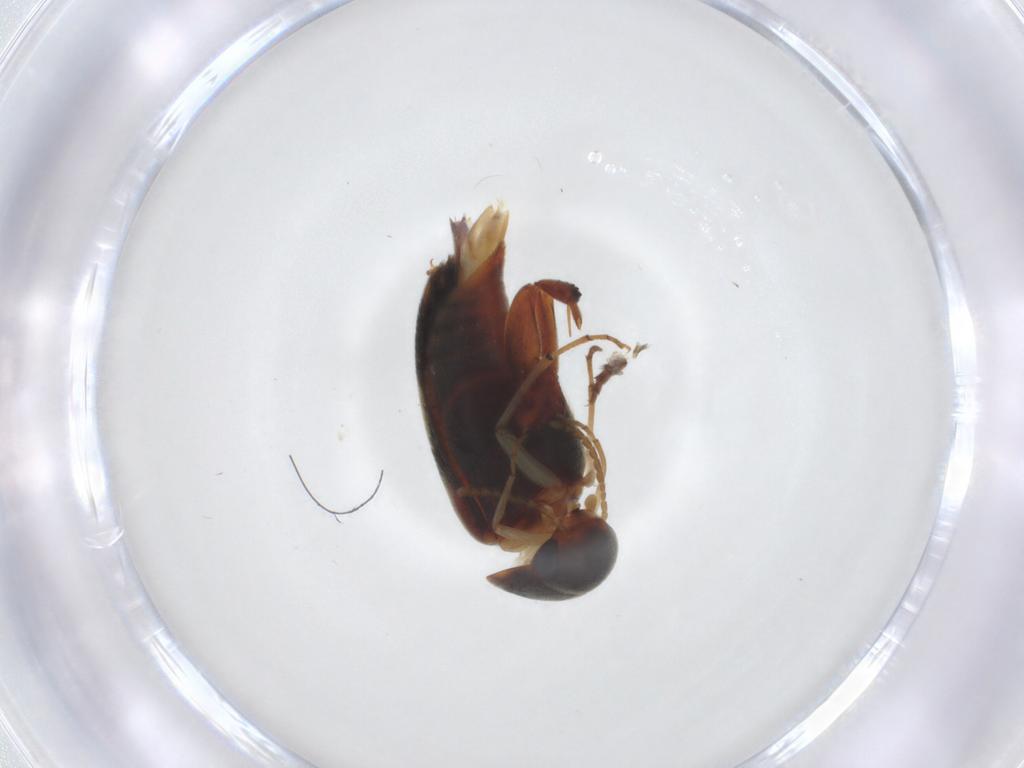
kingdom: Animalia
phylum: Arthropoda
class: Insecta
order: Coleoptera
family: Mordellidae
